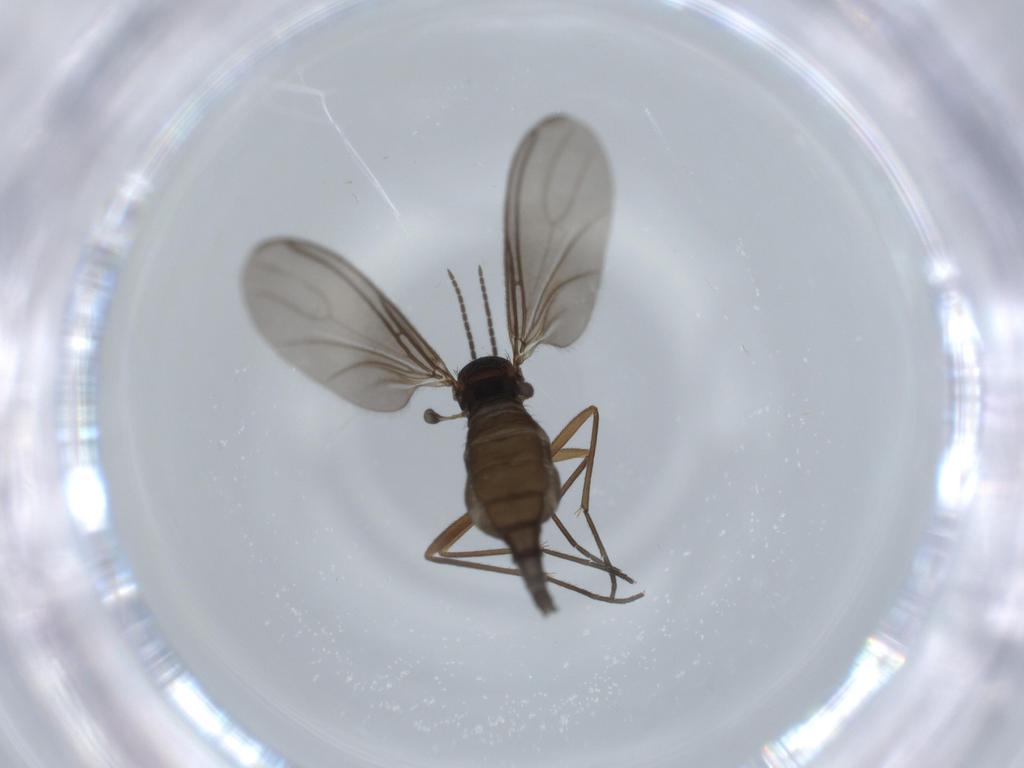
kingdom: Animalia
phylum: Arthropoda
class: Insecta
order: Diptera
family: Sciaridae
